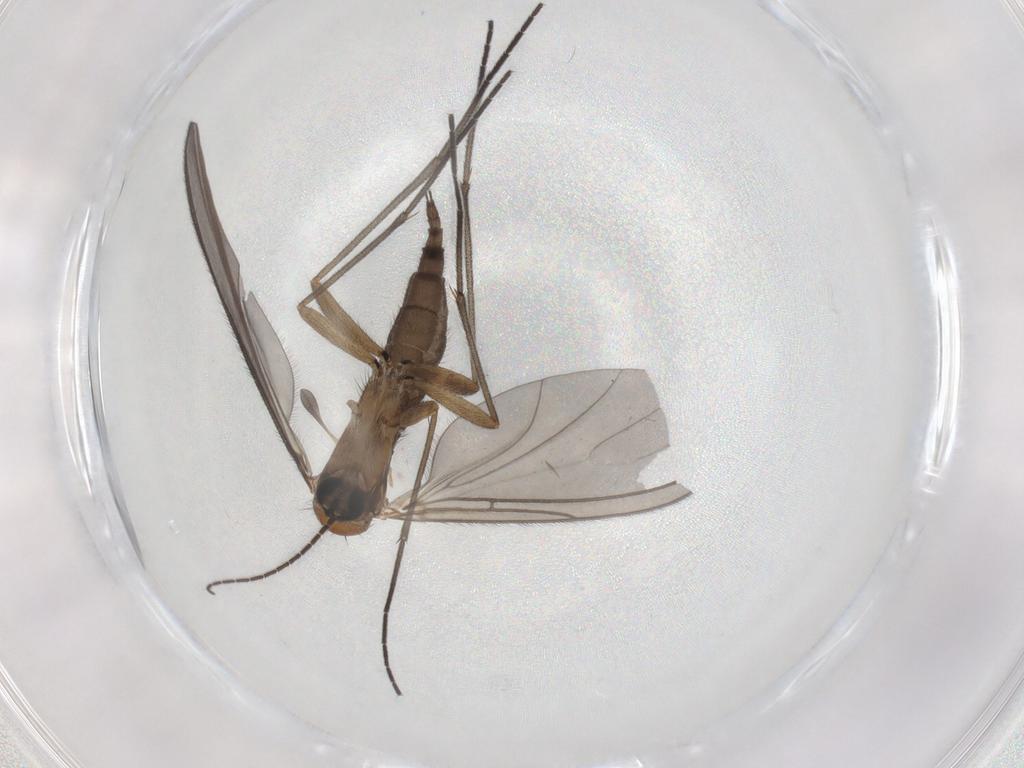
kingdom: Animalia
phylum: Arthropoda
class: Insecta
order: Diptera
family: Sciaridae
